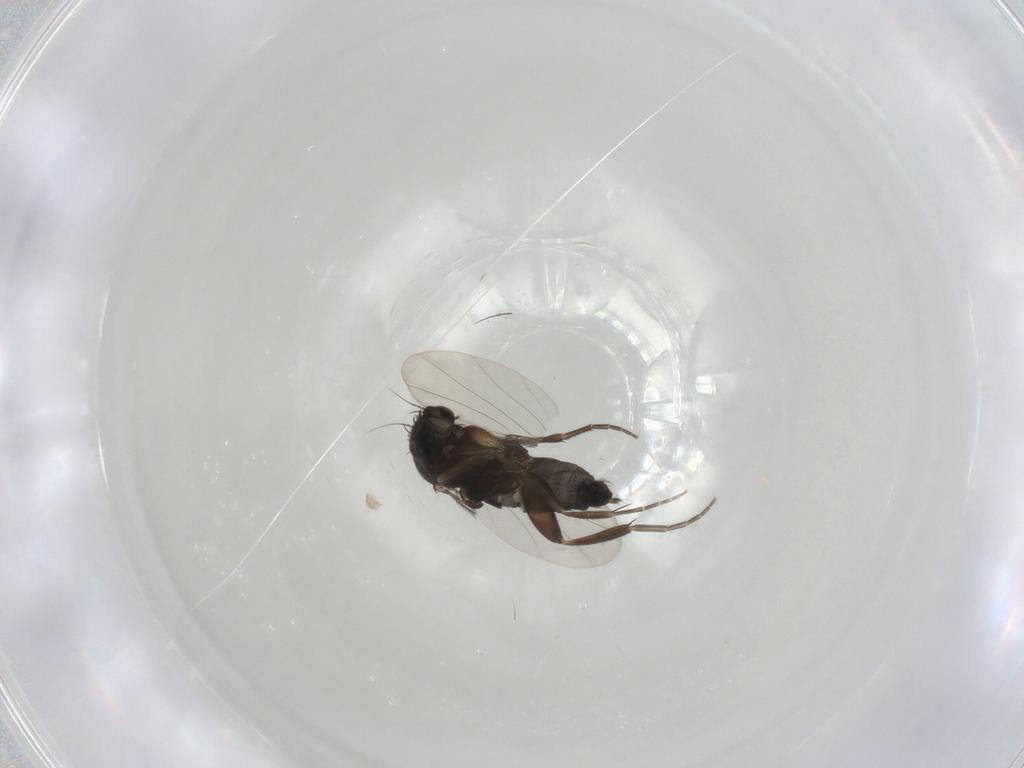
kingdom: Animalia
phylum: Arthropoda
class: Insecta
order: Diptera
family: Phoridae
